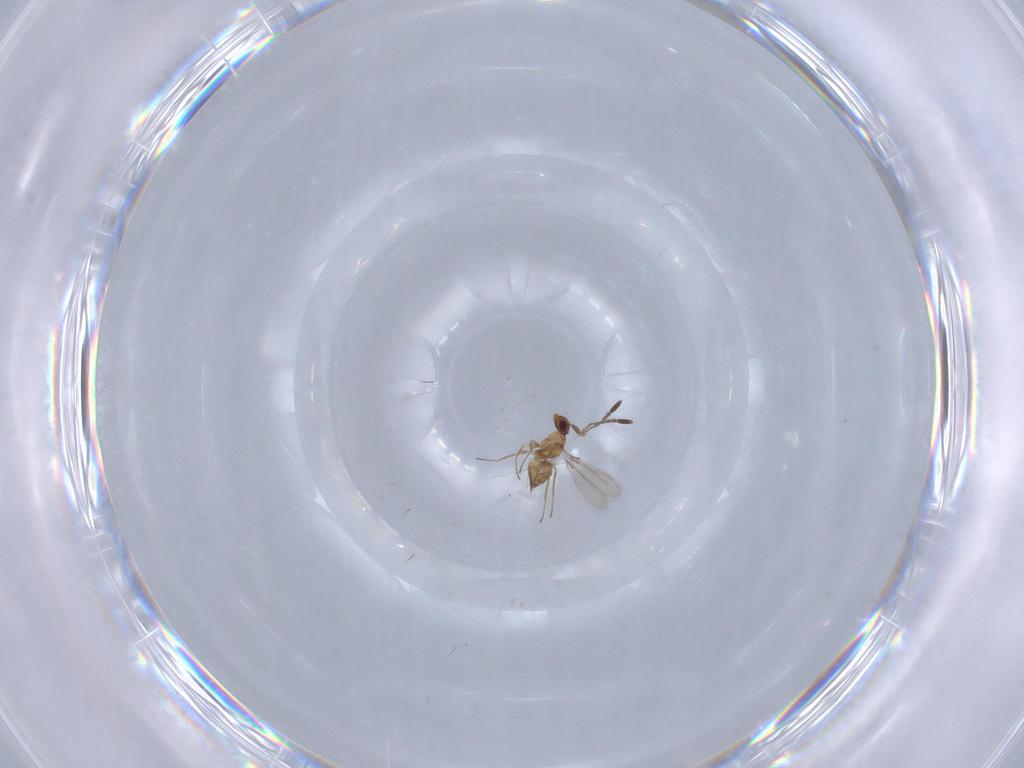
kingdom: Animalia
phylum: Arthropoda
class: Insecta
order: Hymenoptera
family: Mymaridae
